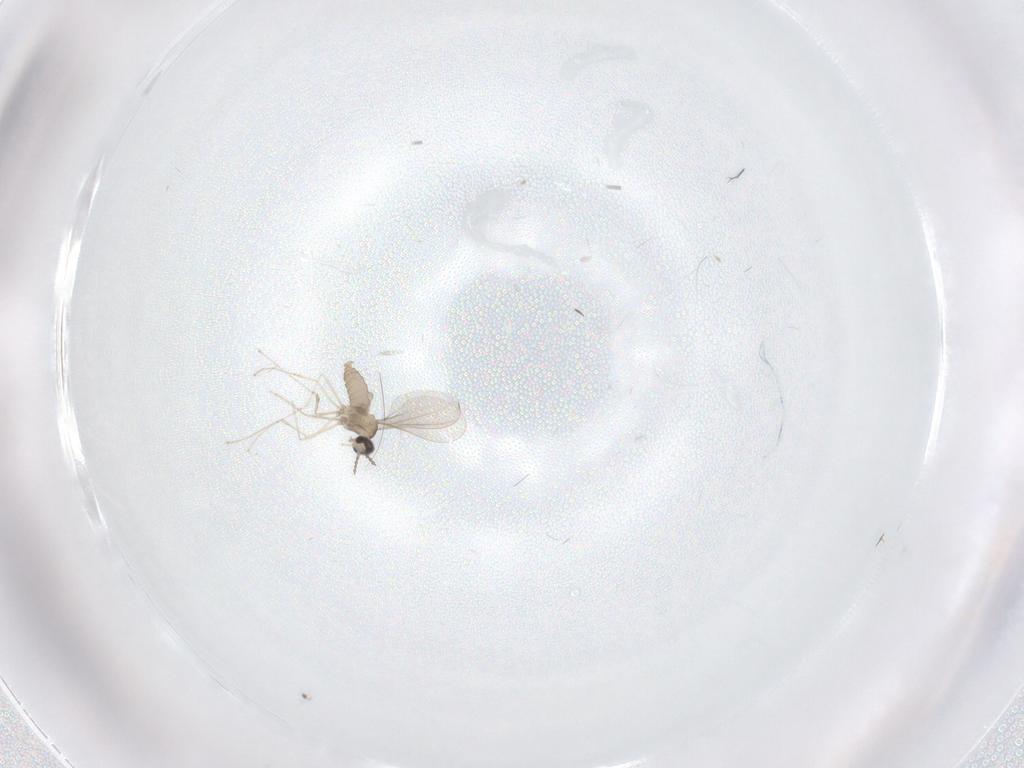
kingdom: Animalia
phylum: Arthropoda
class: Insecta
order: Diptera
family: Ceratopogonidae
